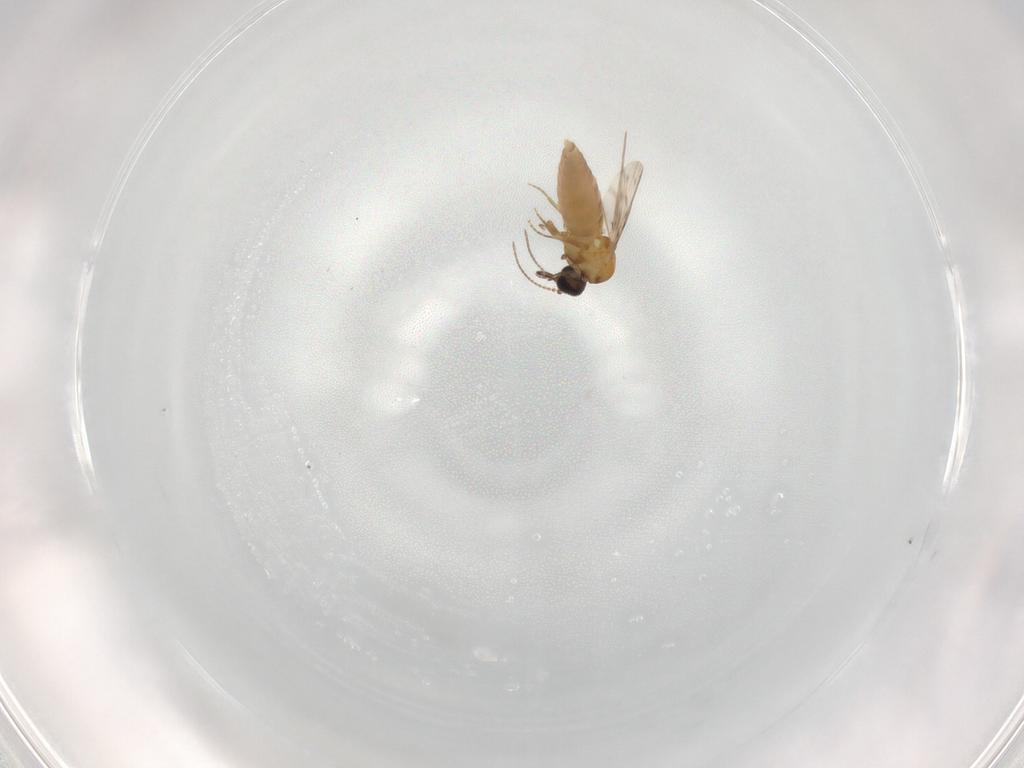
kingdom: Animalia
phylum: Arthropoda
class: Insecta
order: Diptera
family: Ceratopogonidae
